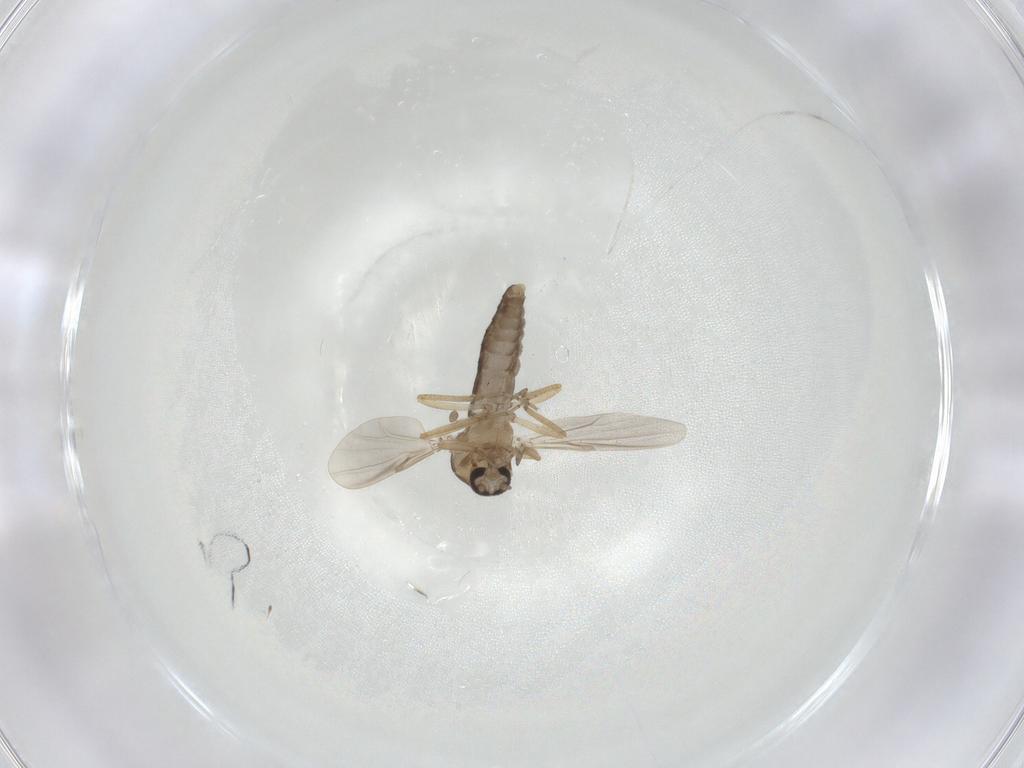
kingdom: Animalia
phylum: Arthropoda
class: Insecta
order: Diptera
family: Ceratopogonidae
